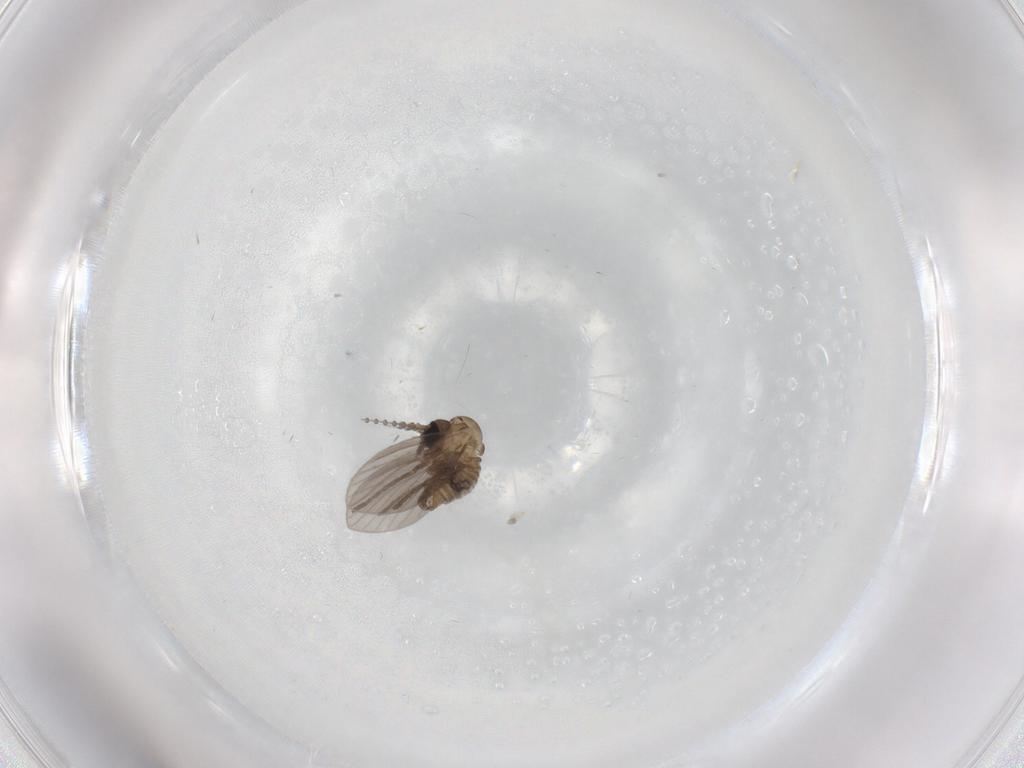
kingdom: Animalia
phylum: Arthropoda
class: Insecta
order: Diptera
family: Psychodidae
